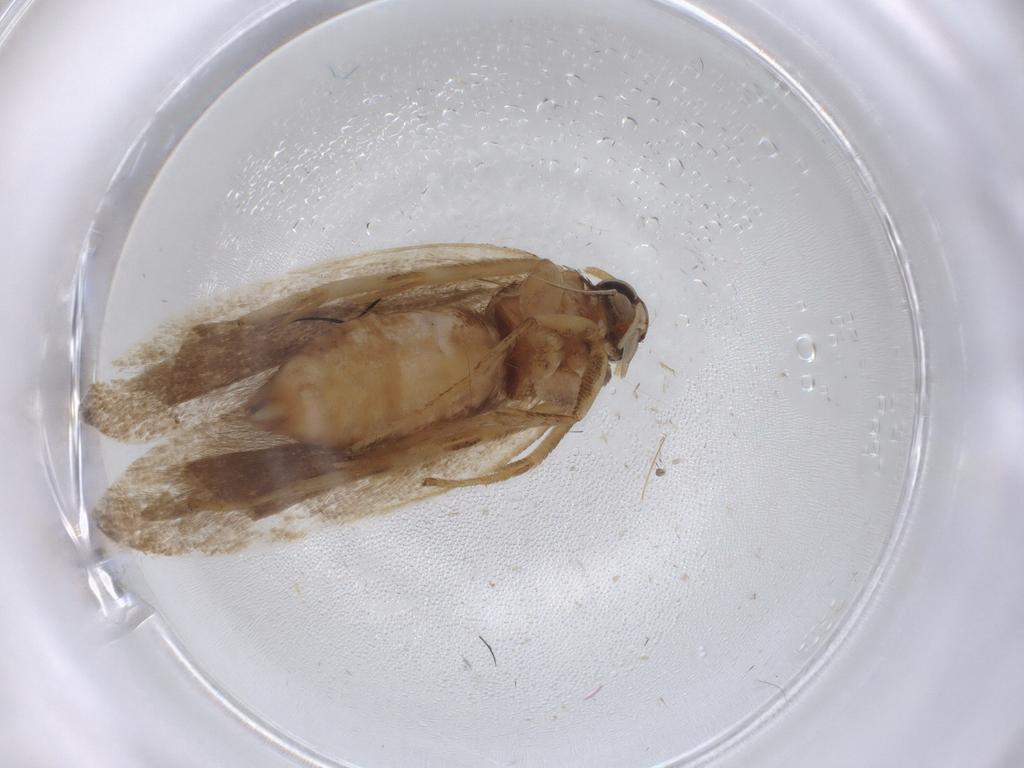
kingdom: Animalia
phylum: Arthropoda
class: Insecta
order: Lepidoptera
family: Gelechiidae
